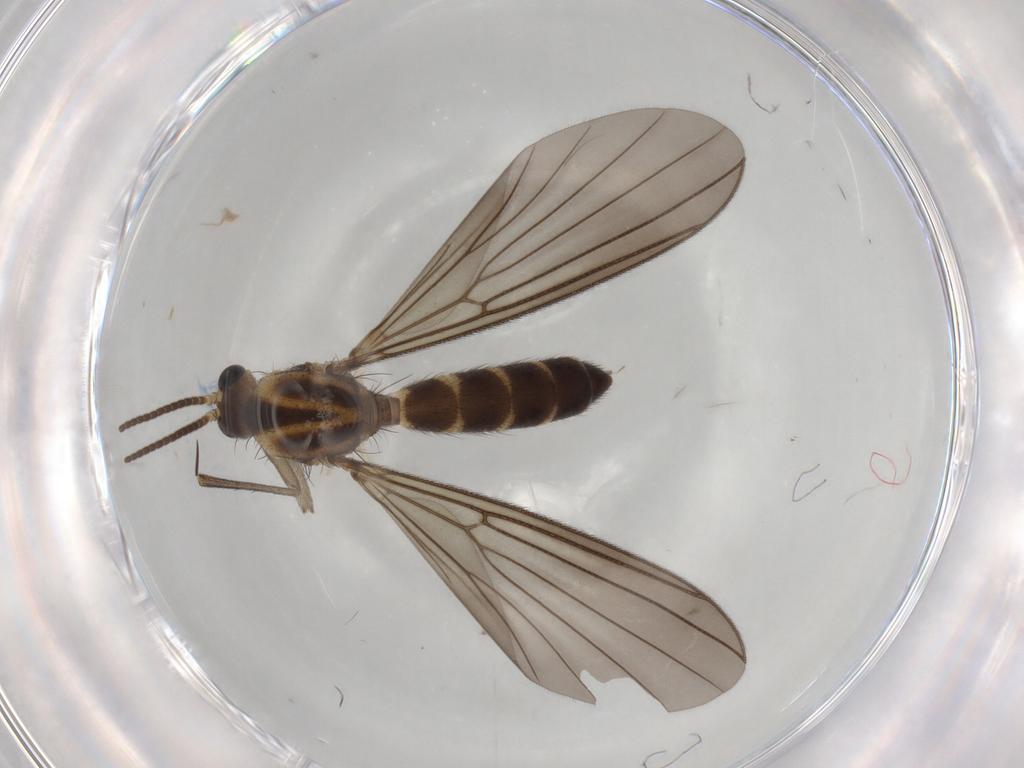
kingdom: Animalia
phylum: Arthropoda
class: Insecta
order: Diptera
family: Mycetophilidae
